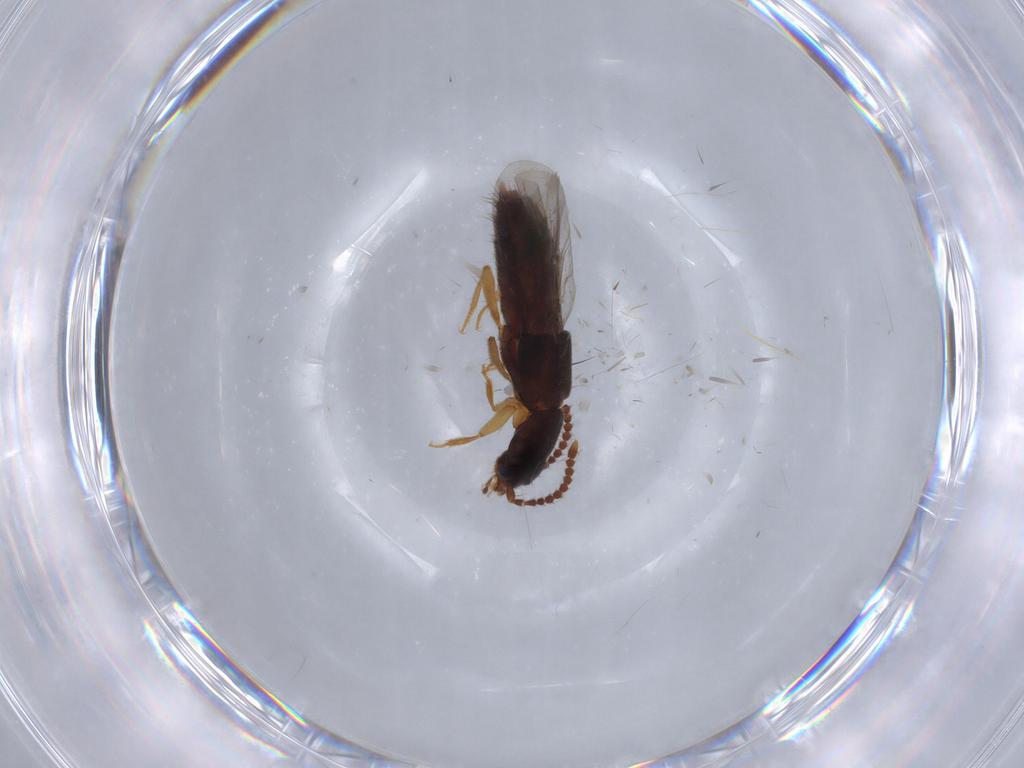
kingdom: Animalia
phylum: Arthropoda
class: Insecta
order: Coleoptera
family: Staphylinidae
